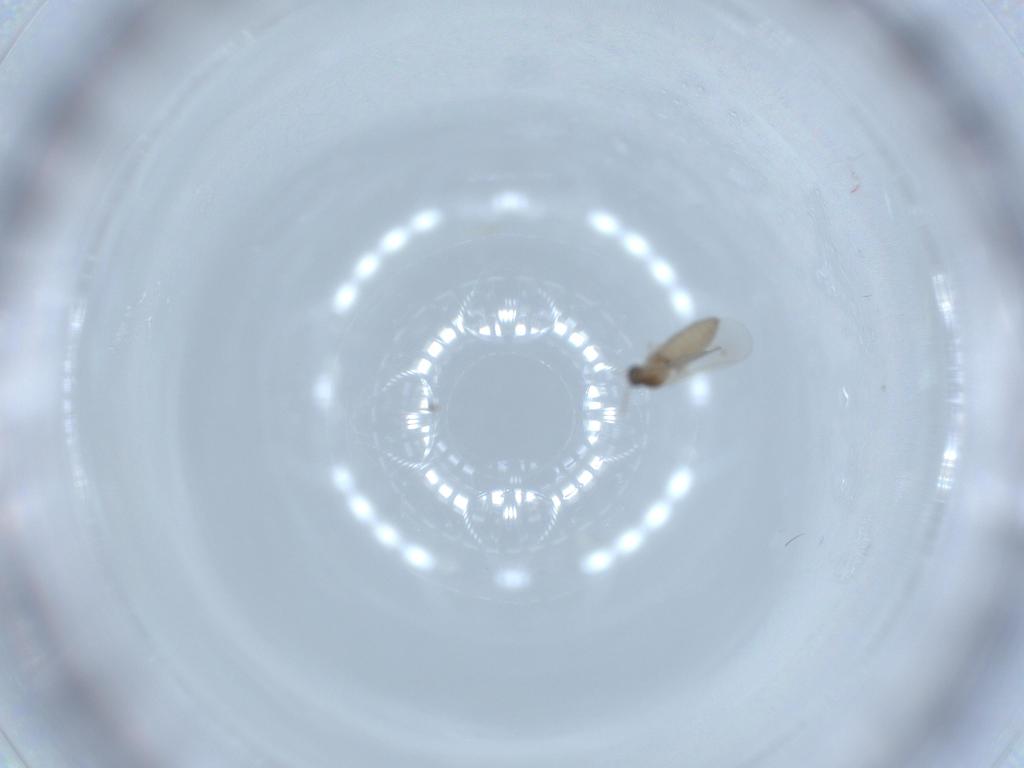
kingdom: Animalia
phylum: Arthropoda
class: Insecta
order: Diptera
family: Cecidomyiidae
